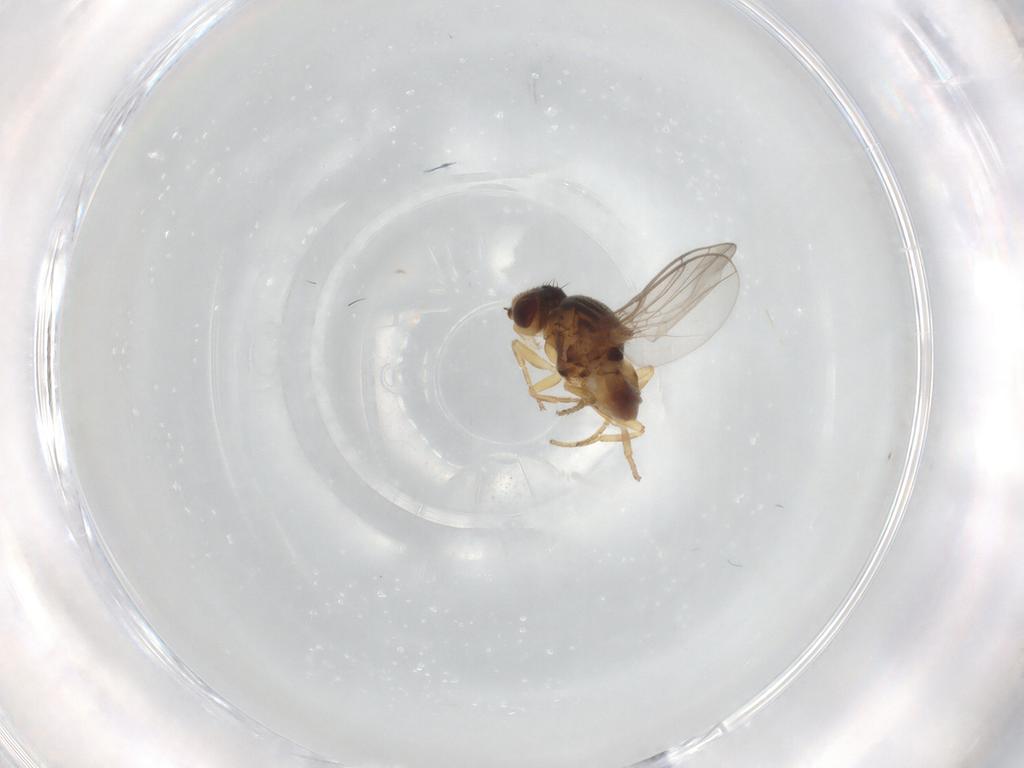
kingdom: Animalia
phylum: Arthropoda
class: Insecta
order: Diptera
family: Chloropidae
